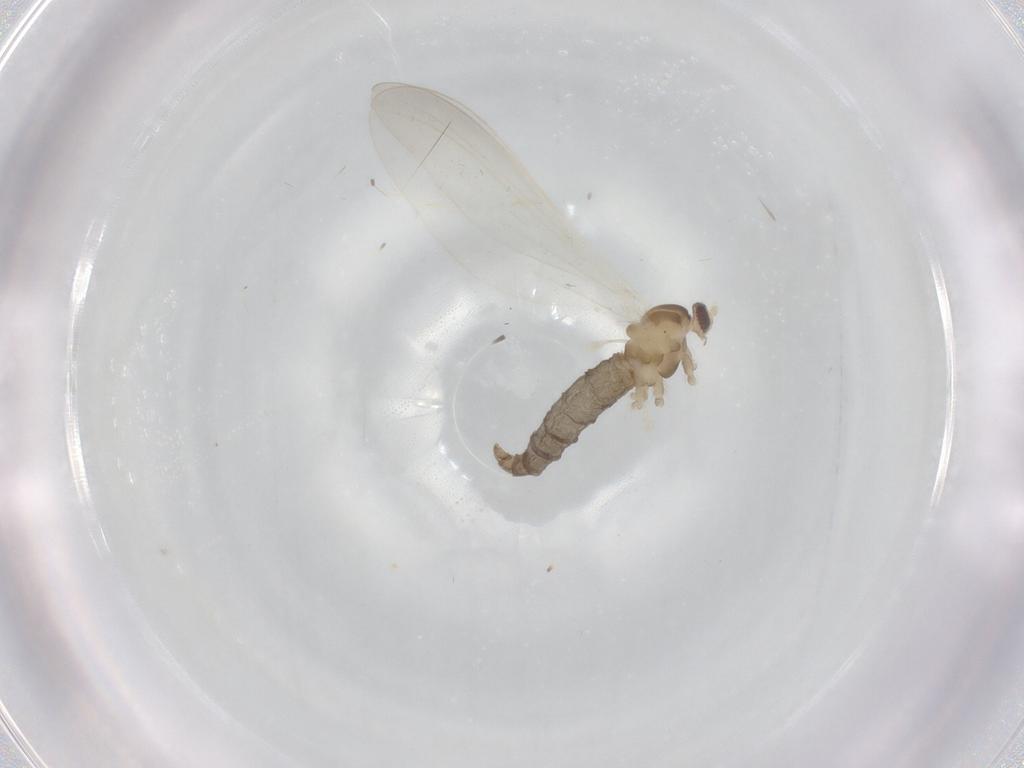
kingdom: Animalia
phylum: Arthropoda
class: Insecta
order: Diptera
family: Cecidomyiidae
